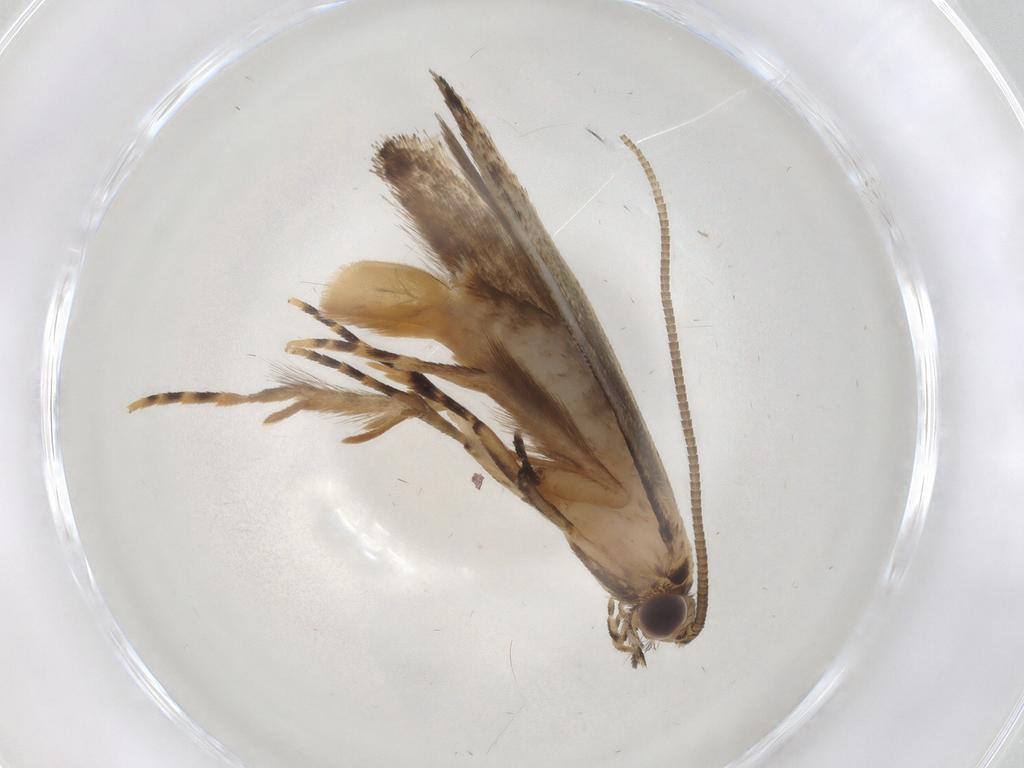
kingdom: Animalia
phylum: Arthropoda
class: Insecta
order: Lepidoptera
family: Tineidae
